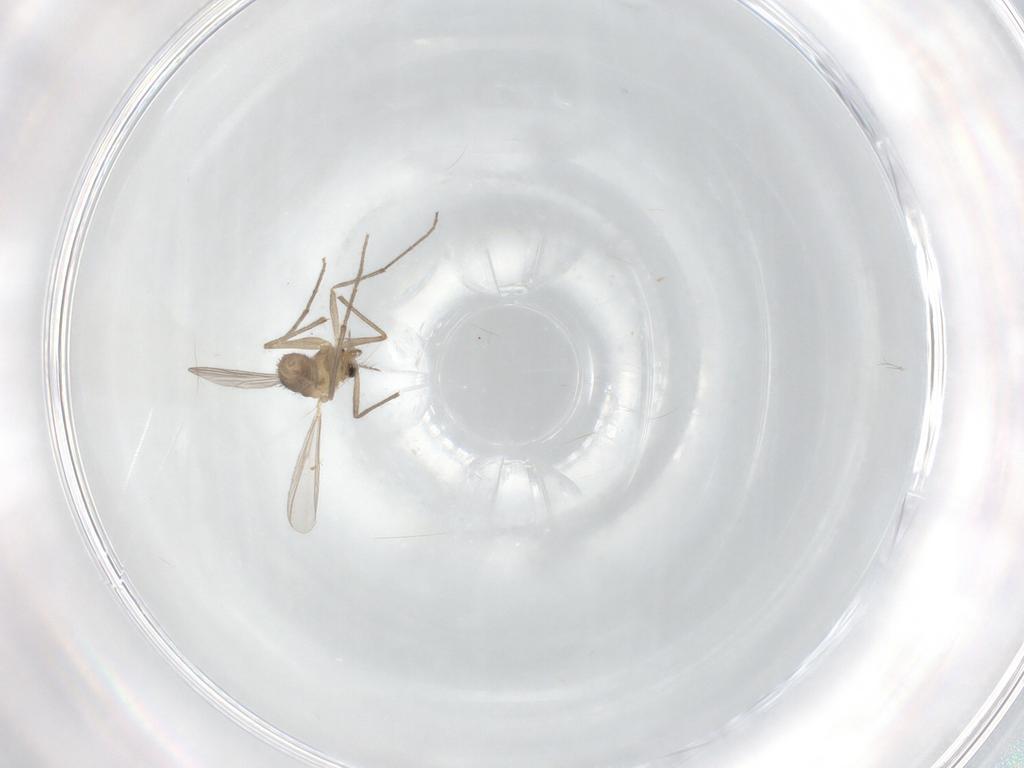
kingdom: Animalia
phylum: Arthropoda
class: Insecta
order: Diptera
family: Chironomidae
